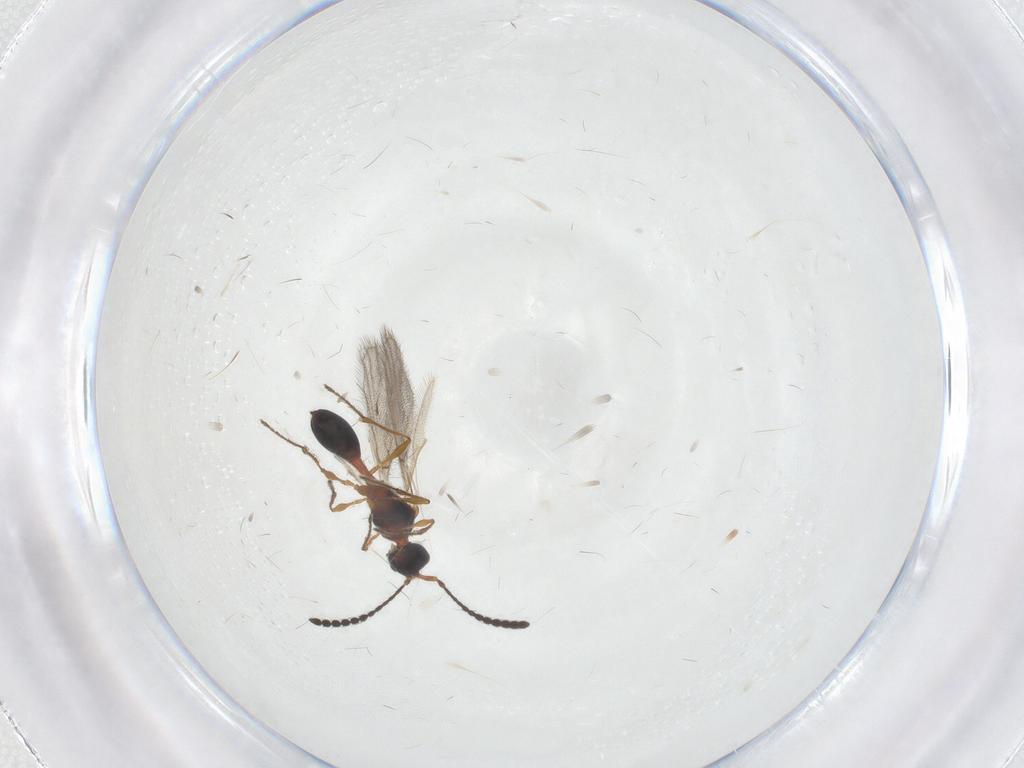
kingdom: Animalia
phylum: Arthropoda
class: Insecta
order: Hymenoptera
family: Diapriidae
